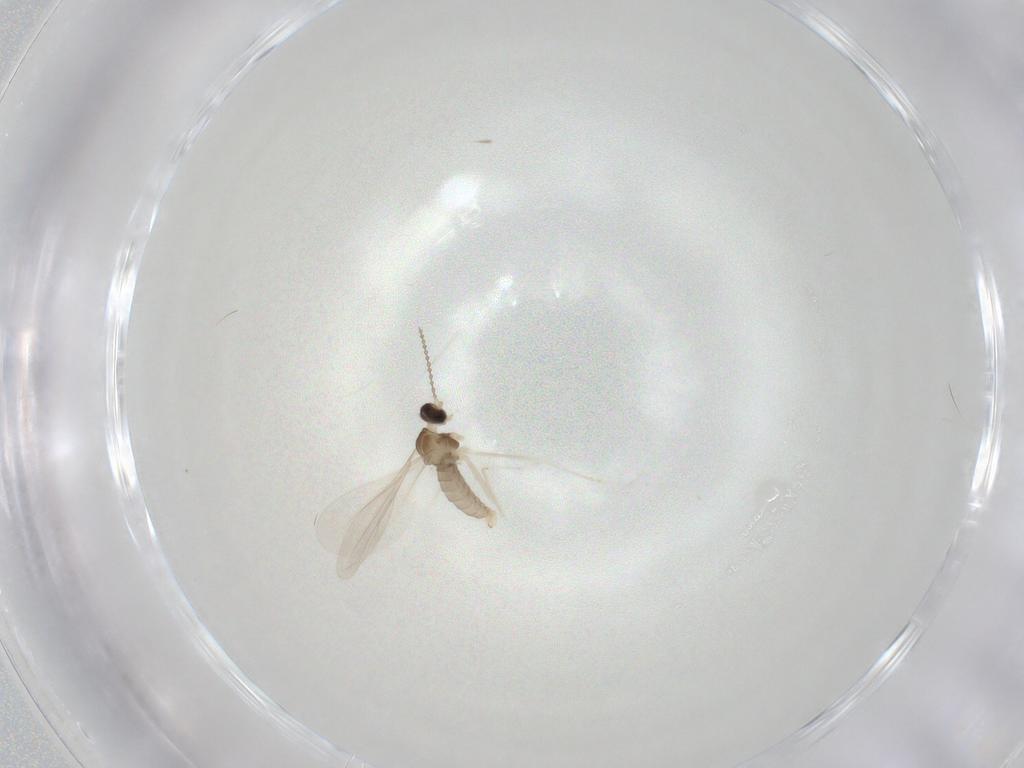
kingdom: Animalia
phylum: Arthropoda
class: Insecta
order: Diptera
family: Cecidomyiidae
